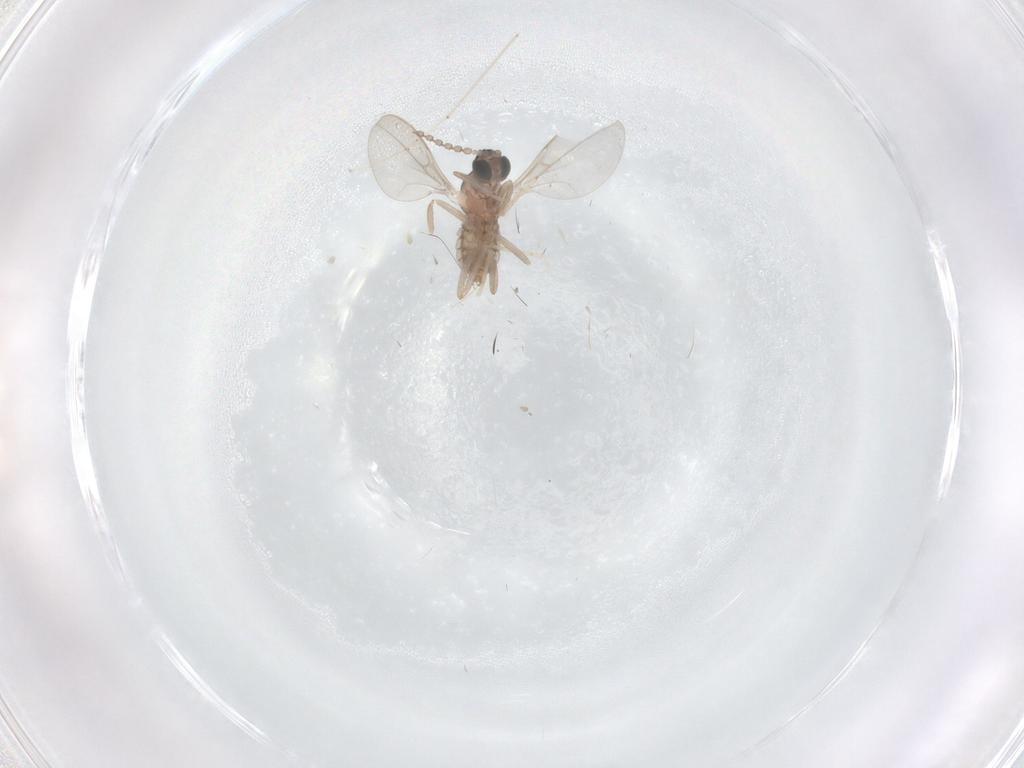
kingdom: Animalia
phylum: Arthropoda
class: Insecta
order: Diptera
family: Cecidomyiidae
